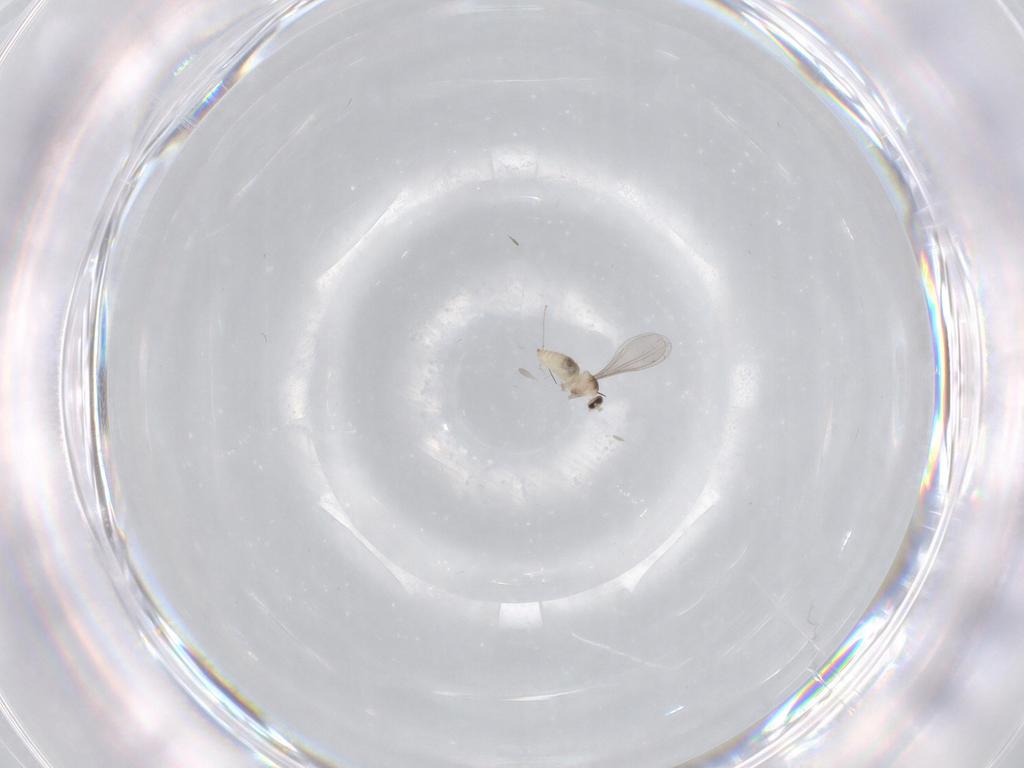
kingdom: Animalia
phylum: Arthropoda
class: Insecta
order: Diptera
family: Cecidomyiidae
